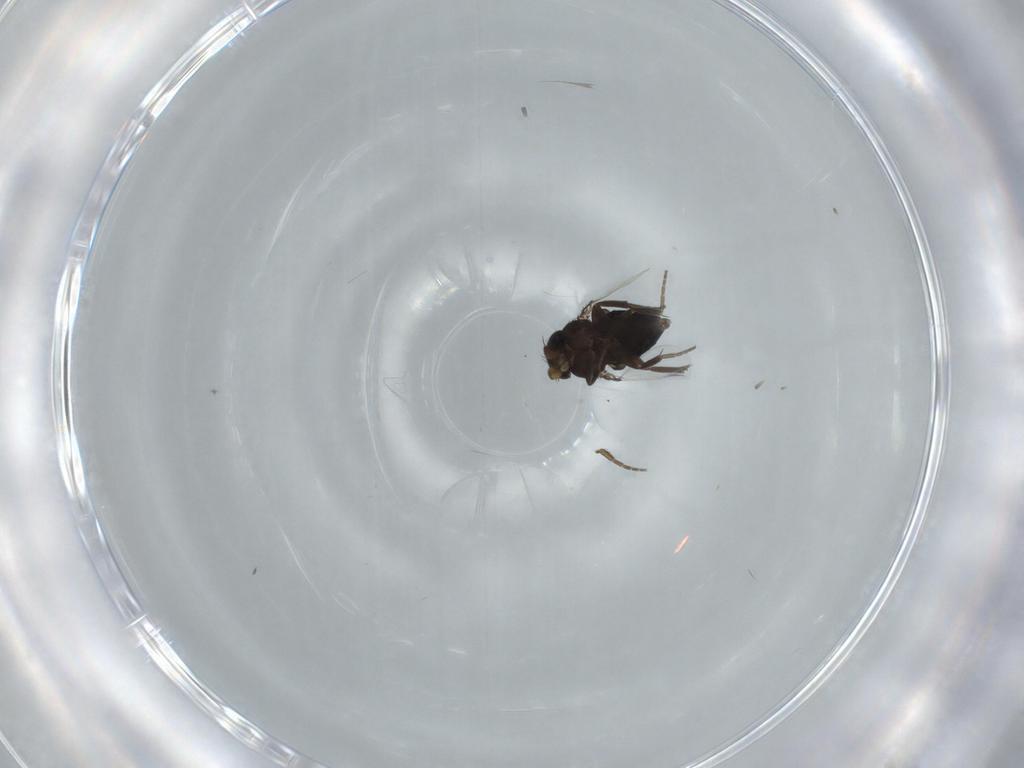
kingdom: Animalia
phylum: Arthropoda
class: Insecta
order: Diptera
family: Phoridae
